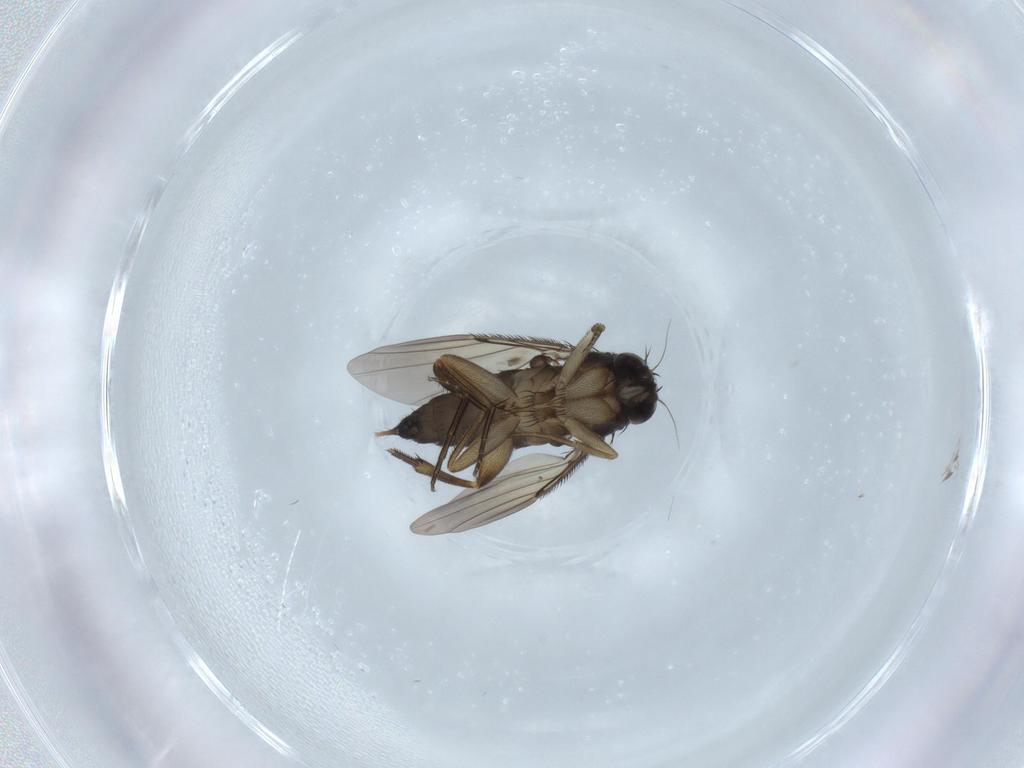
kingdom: Animalia
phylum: Arthropoda
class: Insecta
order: Diptera
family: Phoridae
